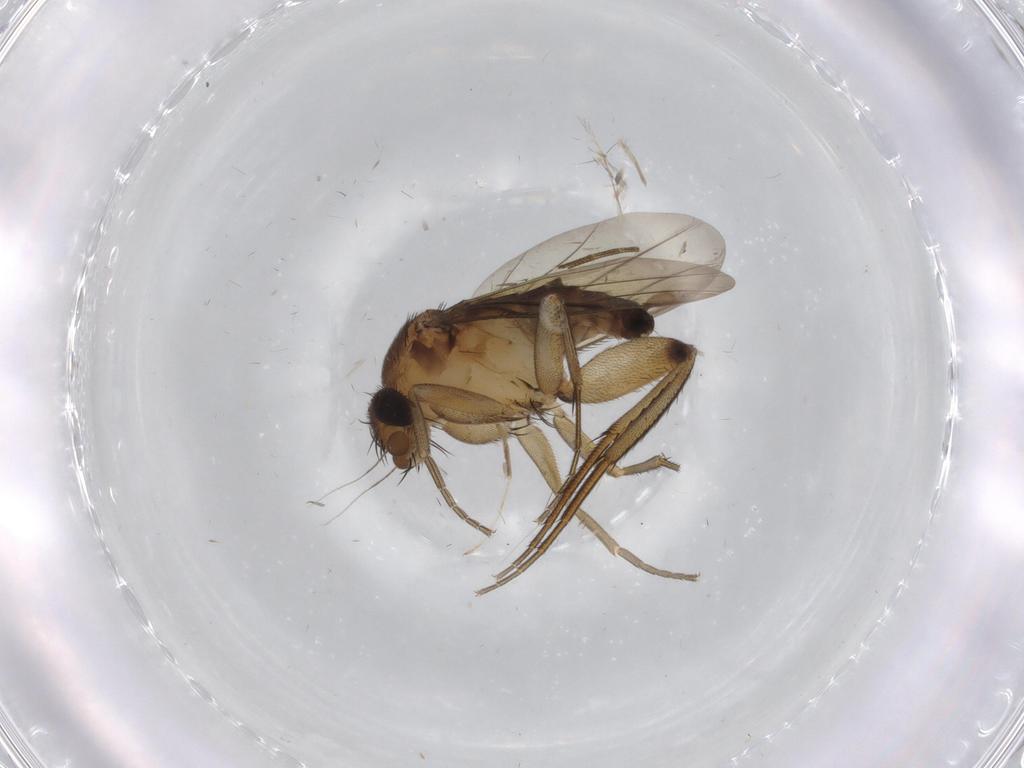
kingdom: Animalia
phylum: Arthropoda
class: Insecta
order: Diptera
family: Phoridae
